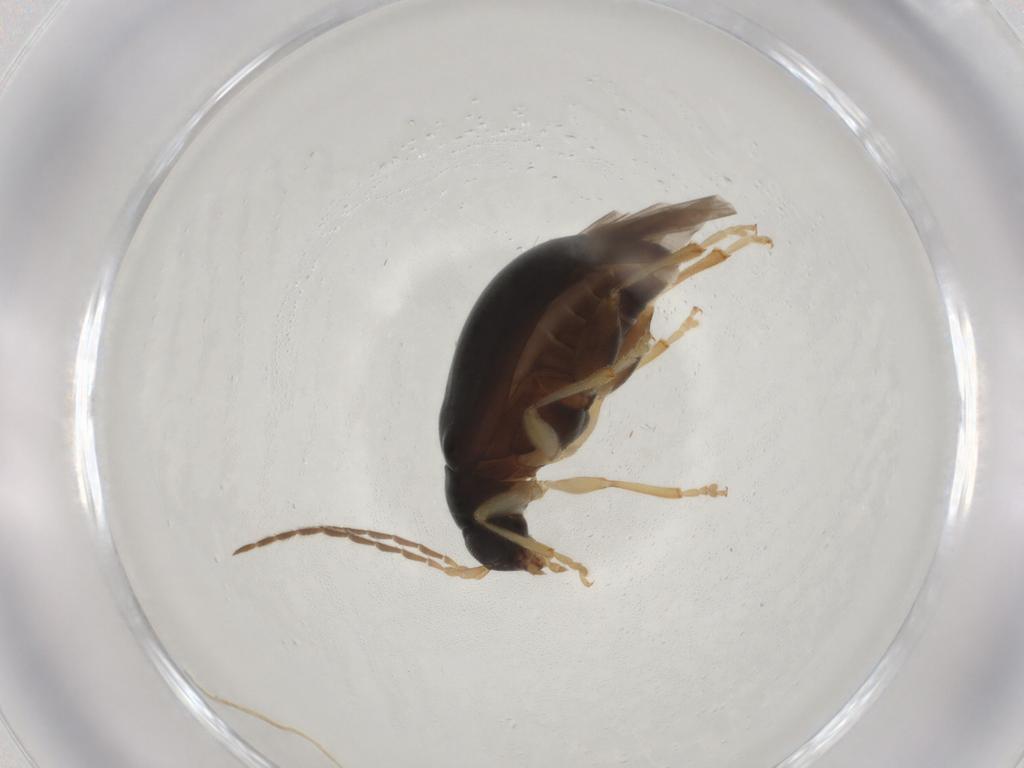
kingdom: Animalia
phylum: Arthropoda
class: Insecta
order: Coleoptera
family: Chrysomelidae
